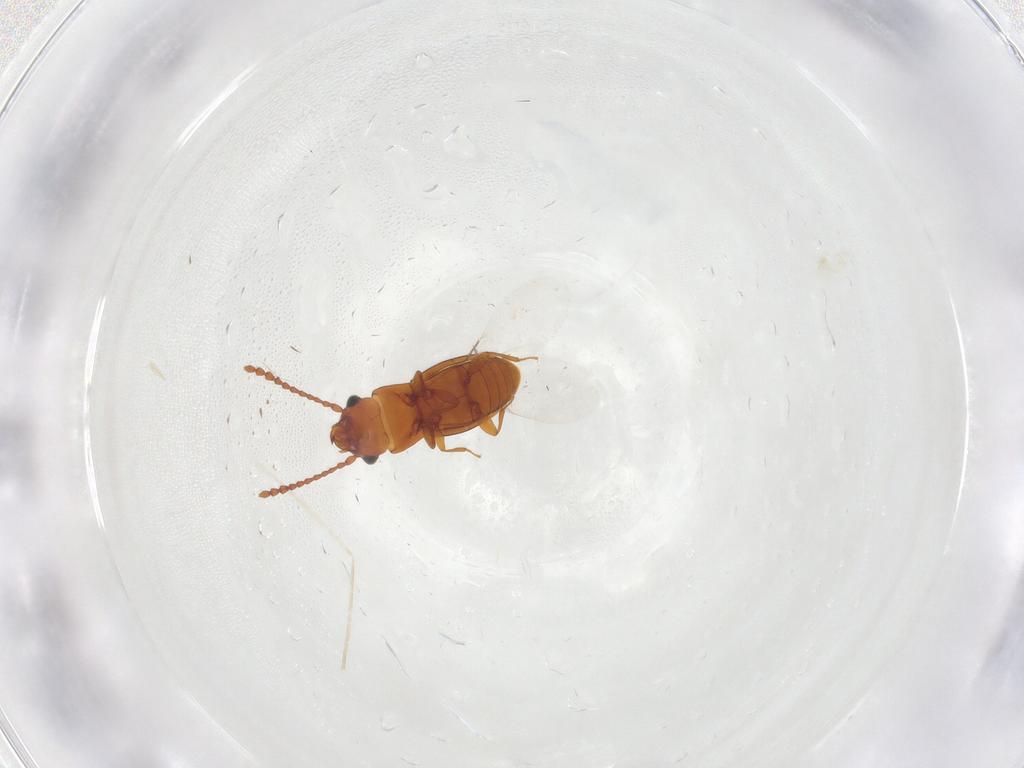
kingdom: Animalia
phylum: Arthropoda
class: Insecta
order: Coleoptera
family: Laemophloeidae
